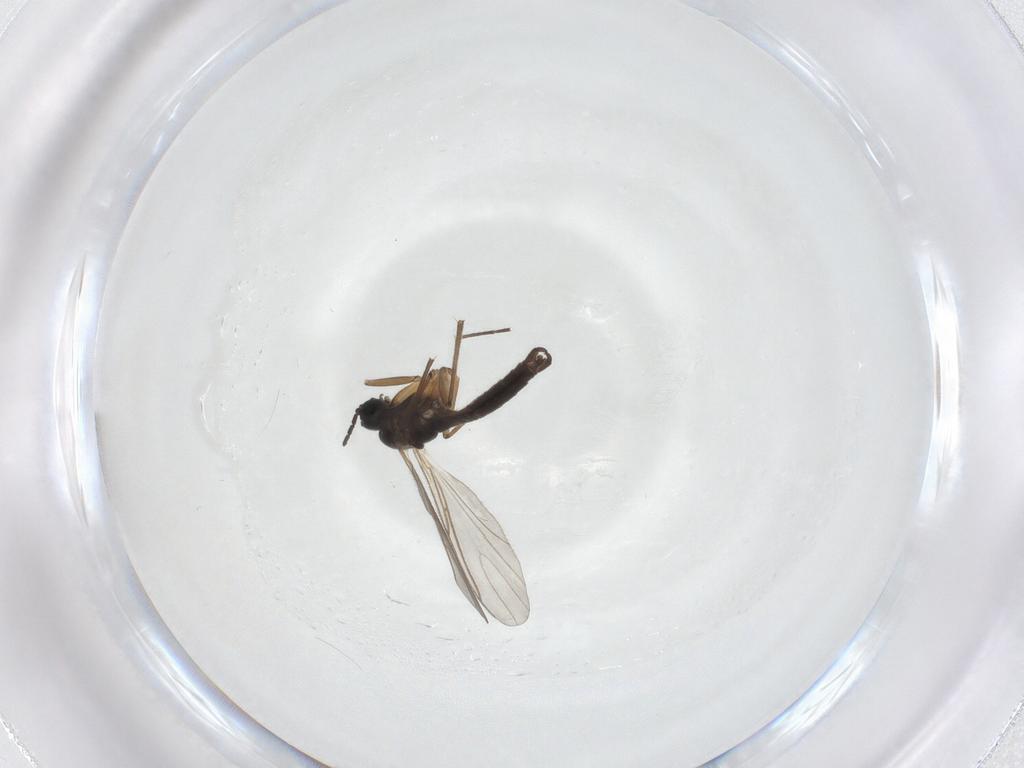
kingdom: Animalia
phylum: Arthropoda
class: Insecta
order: Diptera
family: Sciaridae
